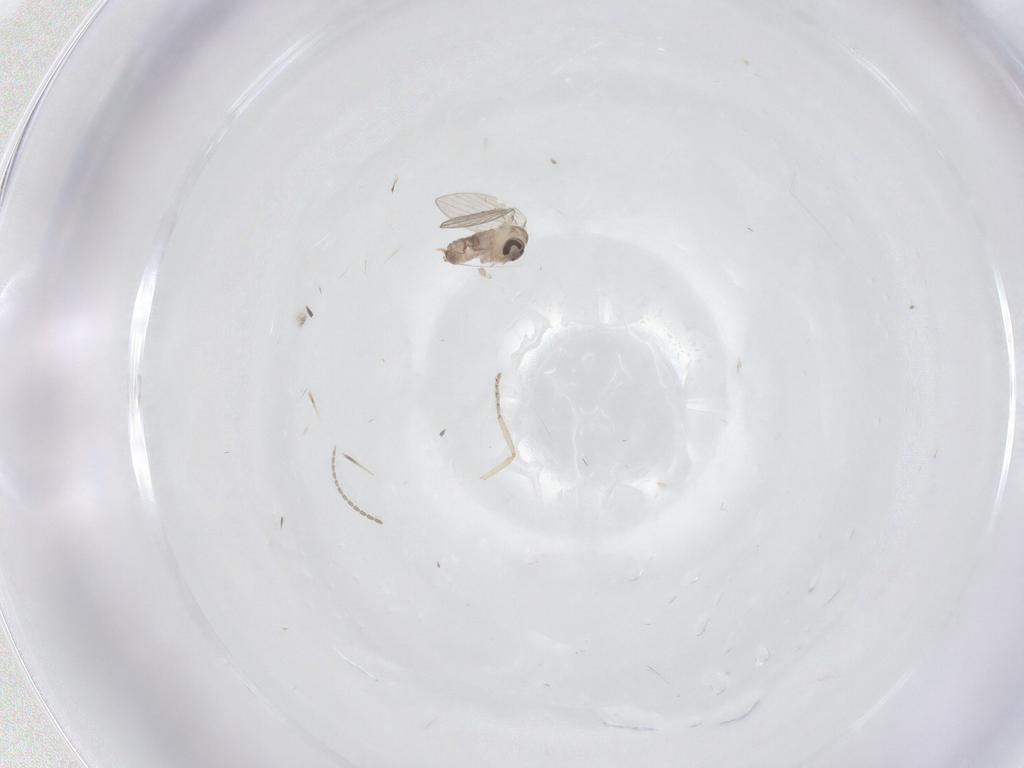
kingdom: Animalia
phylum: Arthropoda
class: Insecta
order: Diptera
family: Psychodidae
